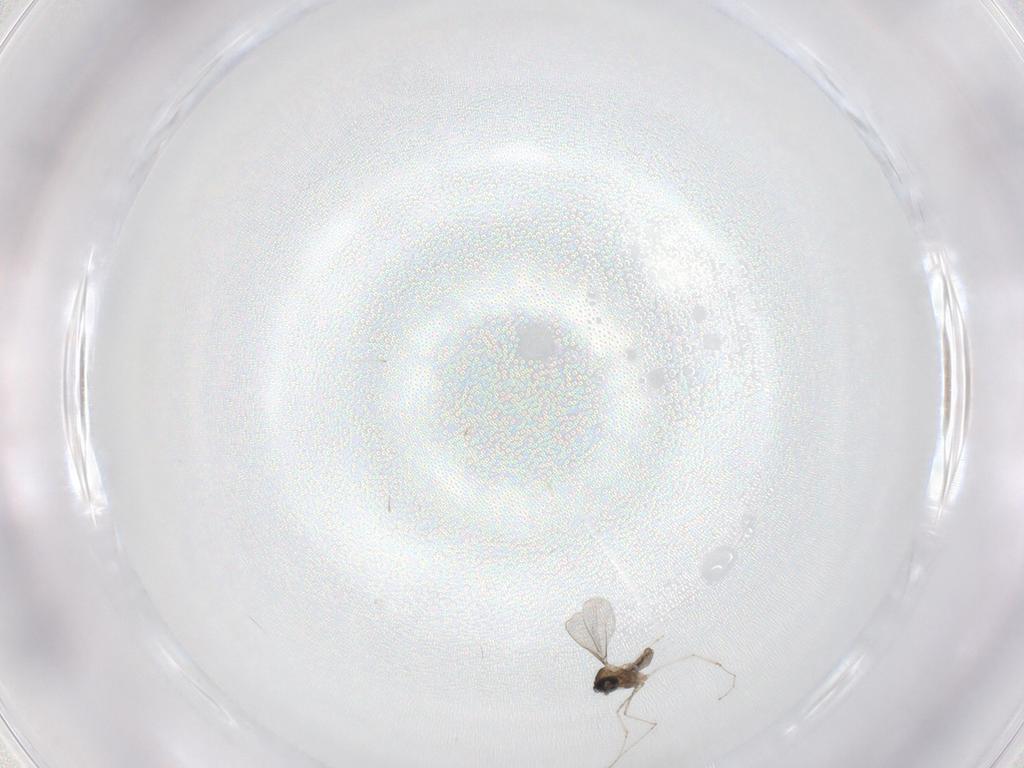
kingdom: Animalia
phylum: Arthropoda
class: Insecta
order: Diptera
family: Cecidomyiidae
